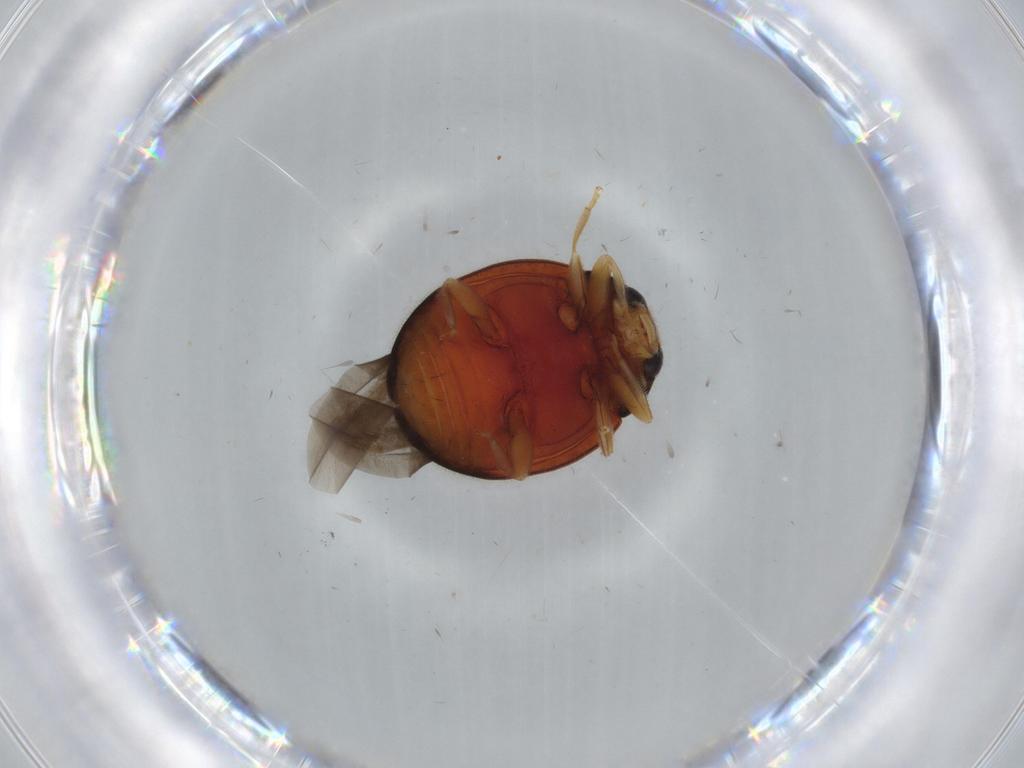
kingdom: Animalia
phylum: Arthropoda
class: Insecta
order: Coleoptera
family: Coccinellidae
